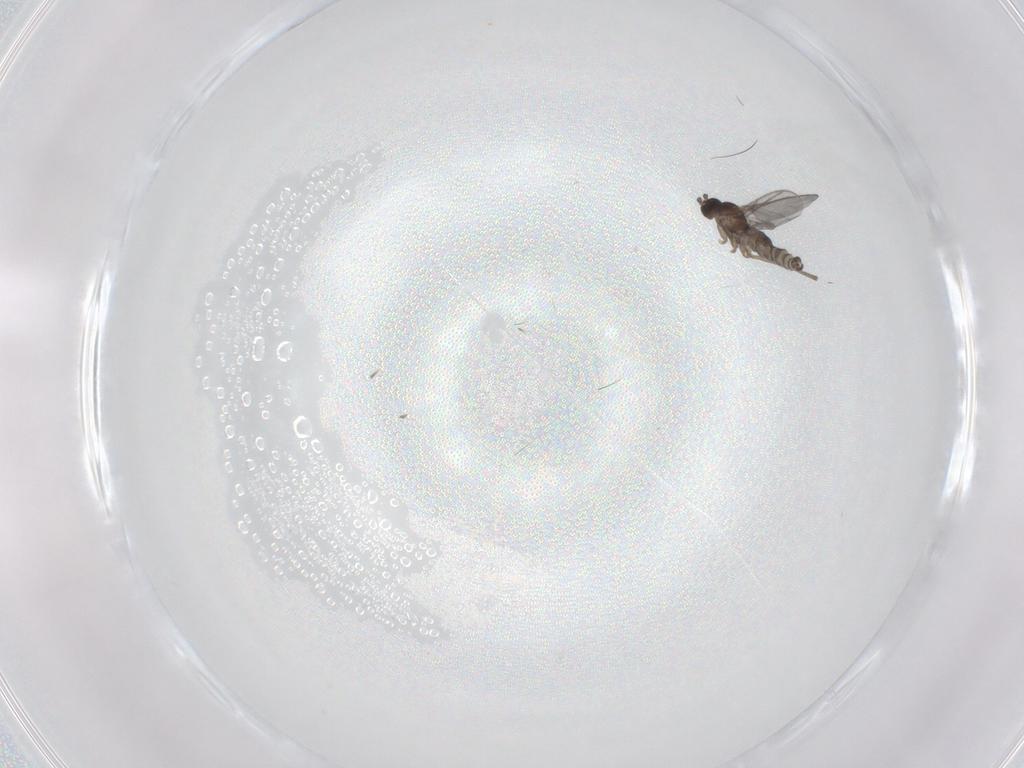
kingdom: Animalia
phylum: Arthropoda
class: Insecta
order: Diptera
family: Sciaridae
